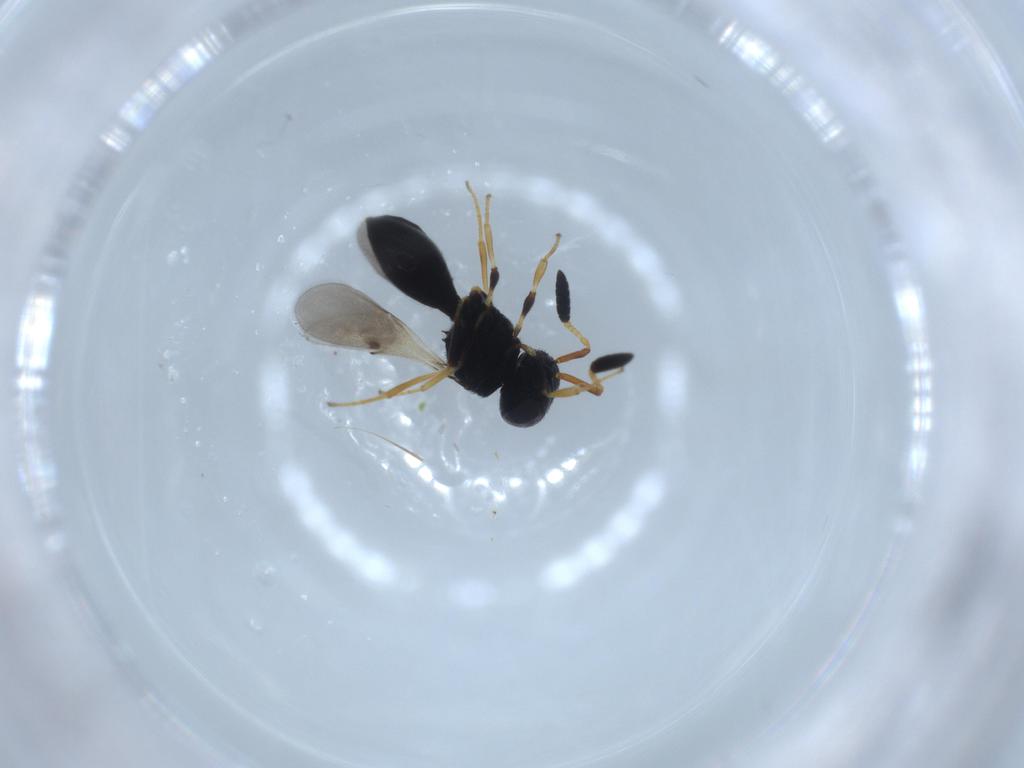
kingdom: Animalia
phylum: Arthropoda
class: Insecta
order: Hymenoptera
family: Scelionidae
